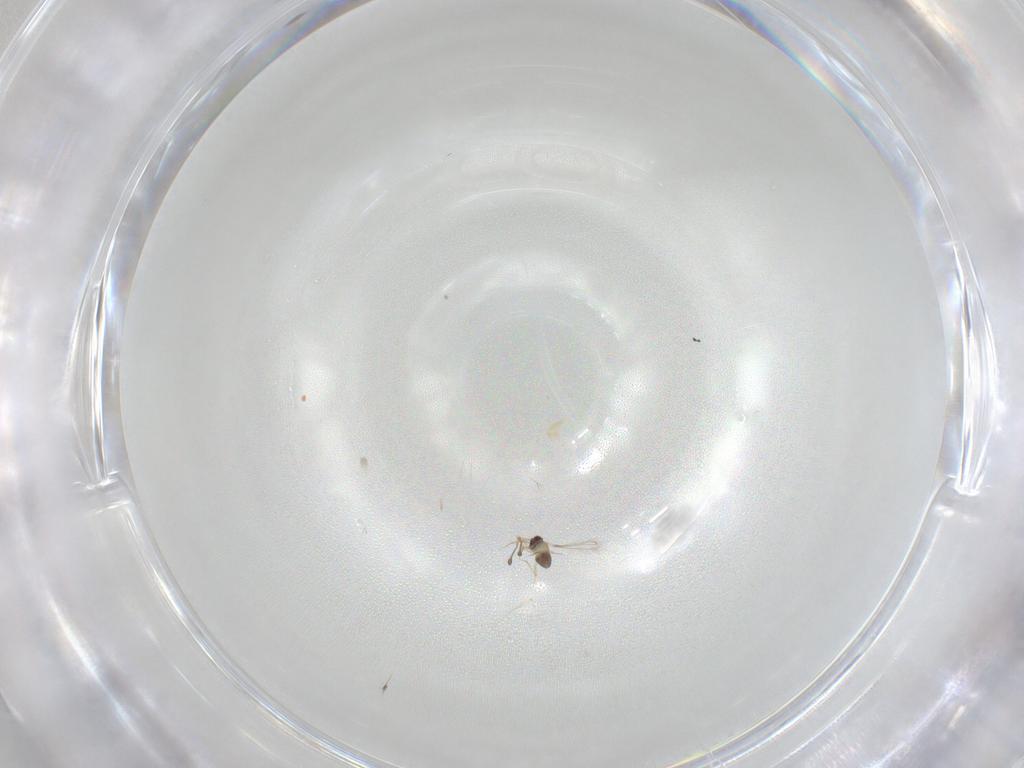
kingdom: Animalia
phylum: Arthropoda
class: Insecta
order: Hymenoptera
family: Mymaridae
